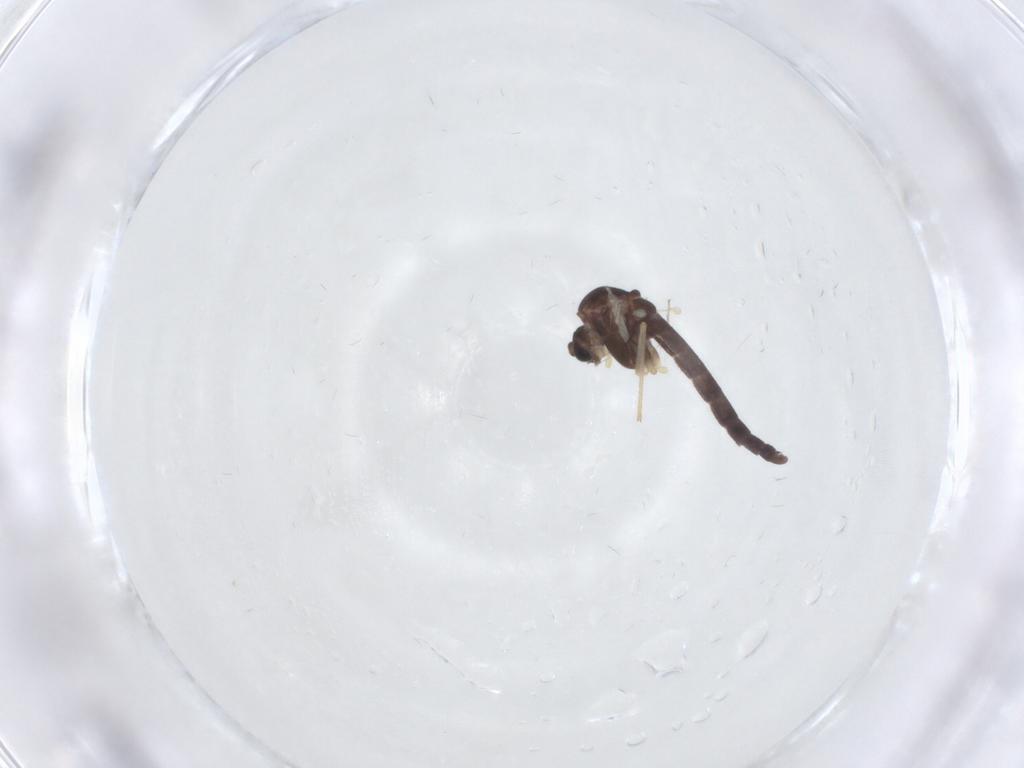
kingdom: Animalia
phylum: Arthropoda
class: Insecta
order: Diptera
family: Chironomidae
